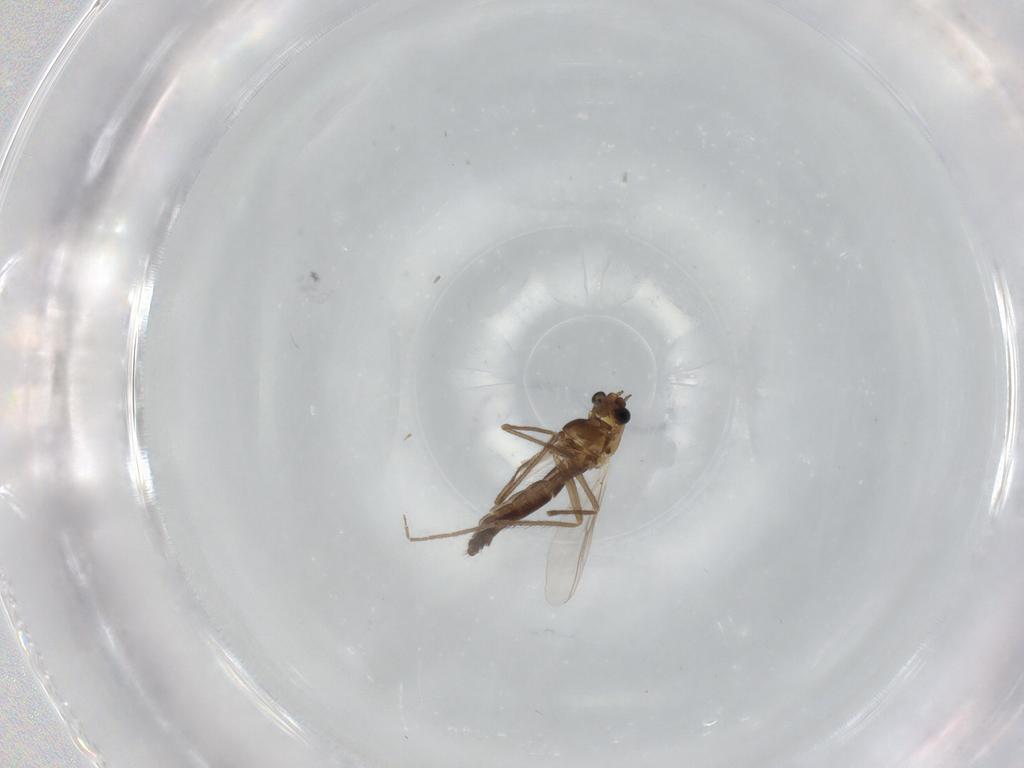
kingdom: Animalia
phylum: Arthropoda
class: Insecta
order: Diptera
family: Chironomidae
